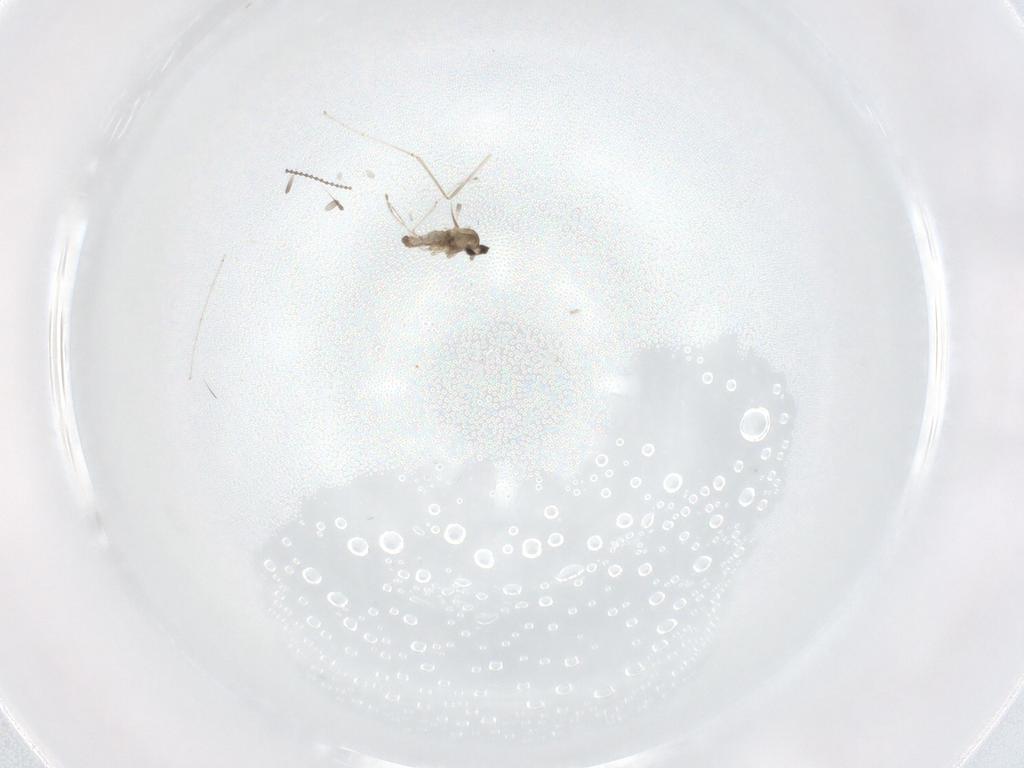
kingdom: Animalia
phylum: Arthropoda
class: Insecta
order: Diptera
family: Cecidomyiidae
